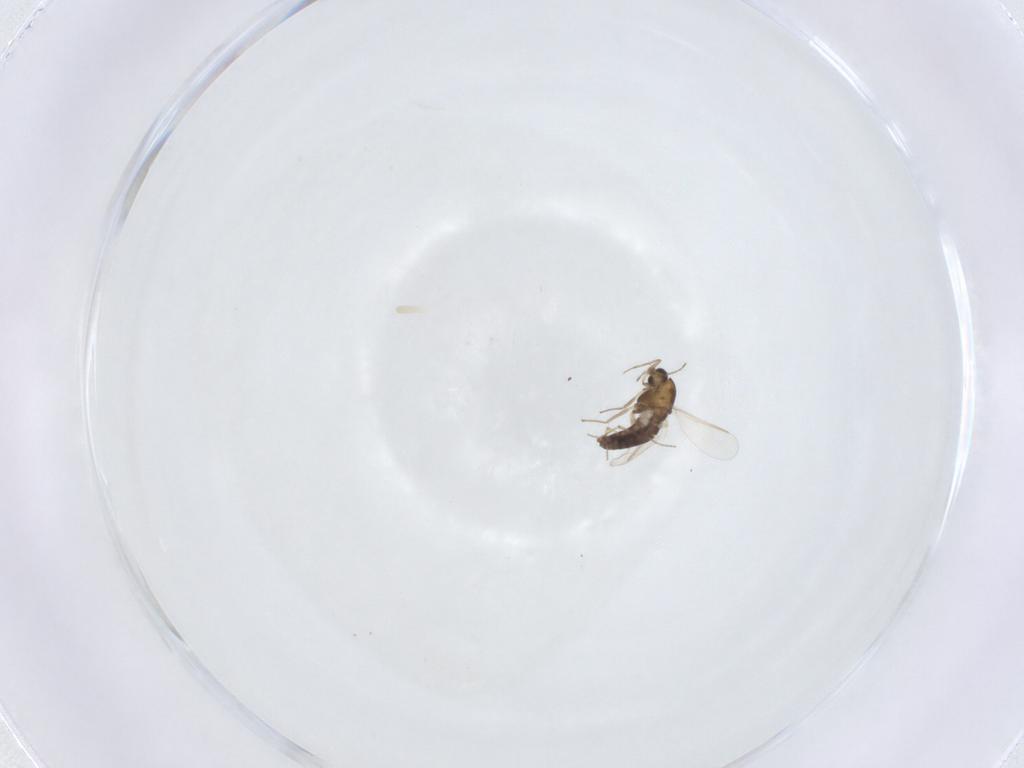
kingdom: Animalia
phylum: Arthropoda
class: Insecta
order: Diptera
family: Chironomidae
